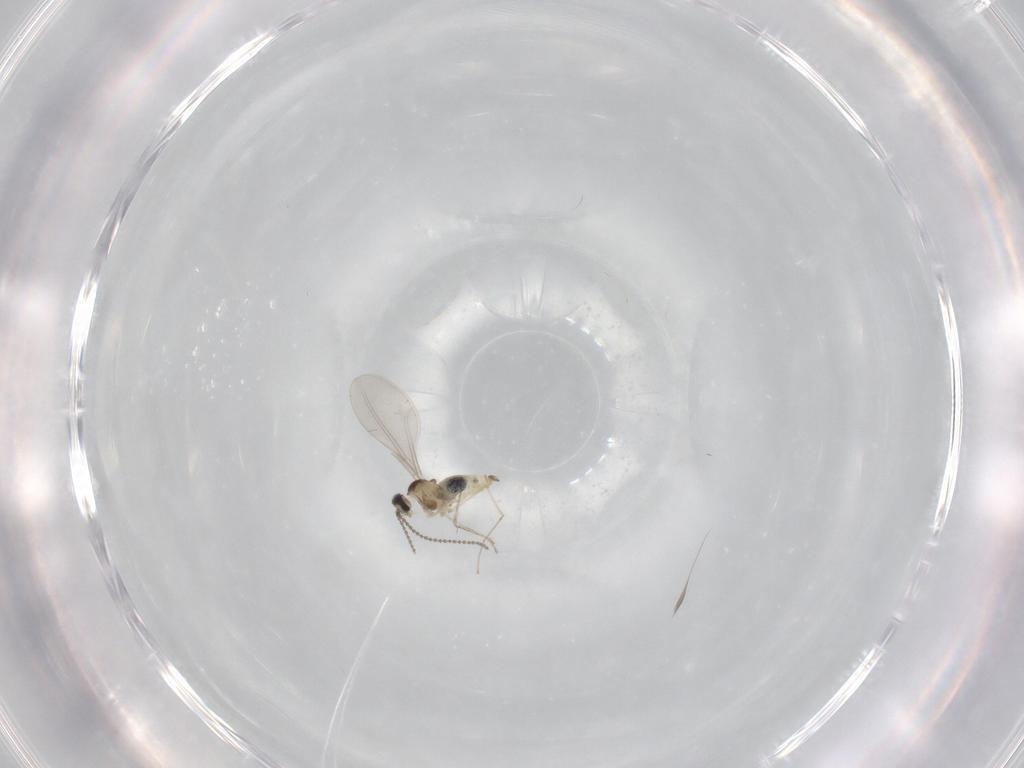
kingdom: Animalia
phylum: Arthropoda
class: Insecta
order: Diptera
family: Cecidomyiidae
